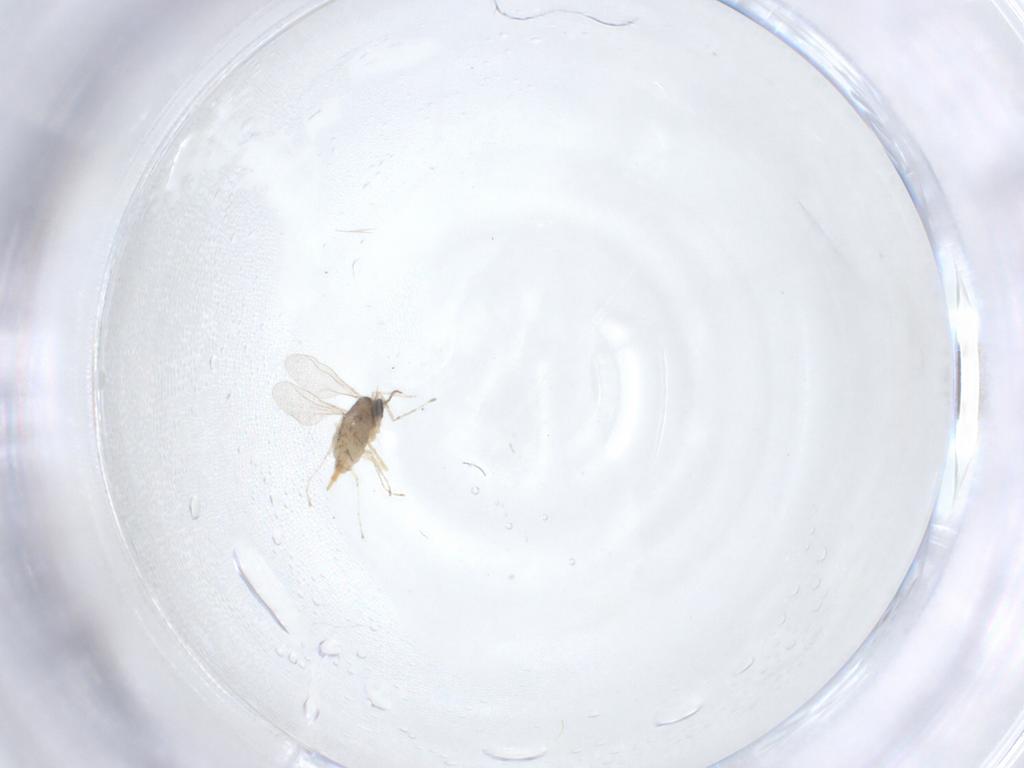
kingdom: Animalia
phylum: Arthropoda
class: Insecta
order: Diptera
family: Cecidomyiidae
